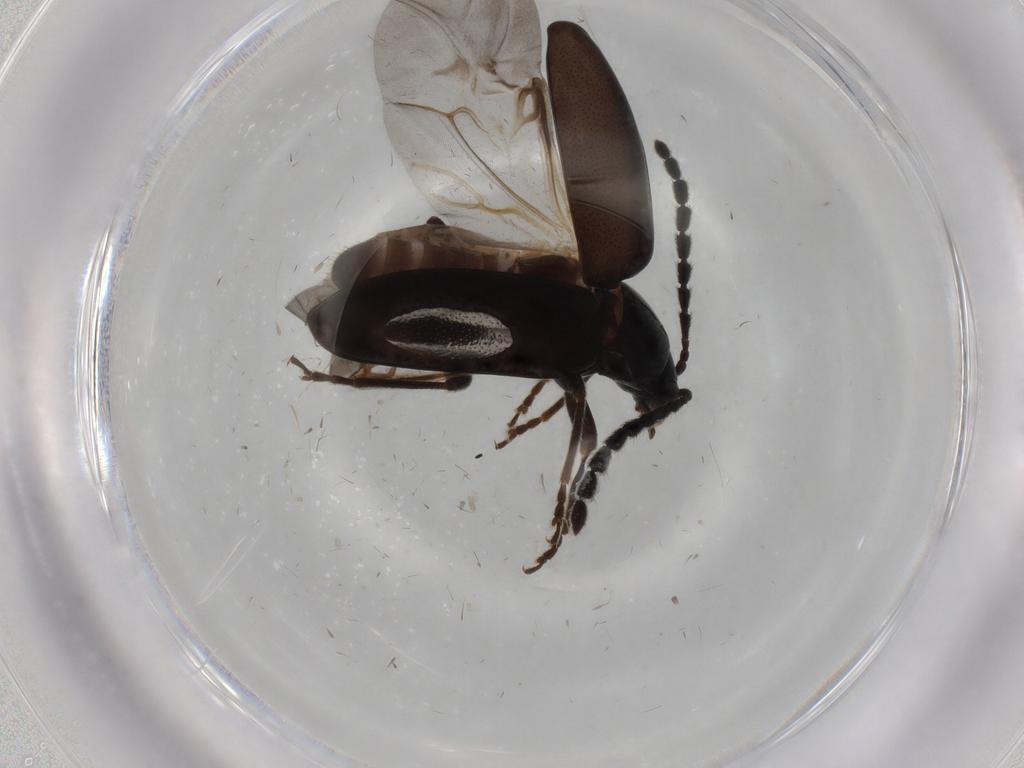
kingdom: Animalia
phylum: Arthropoda
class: Insecta
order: Coleoptera
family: Chrysomelidae
